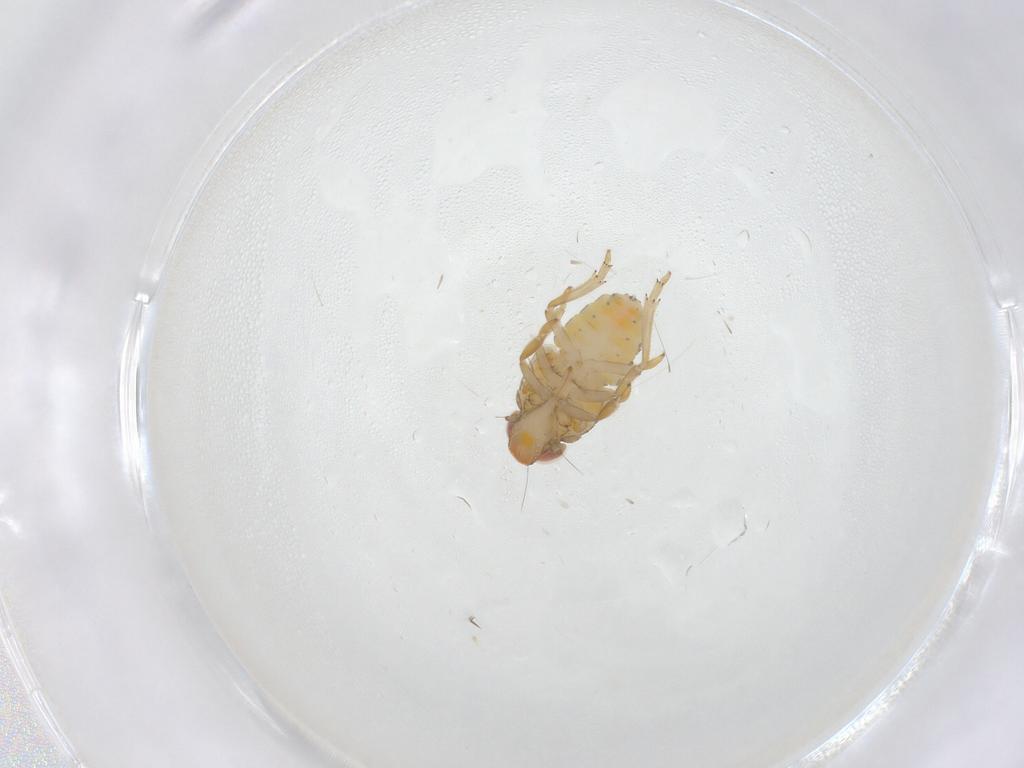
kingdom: Animalia
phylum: Arthropoda
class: Insecta
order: Hemiptera
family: Fulgoroidea_incertae_sedis
